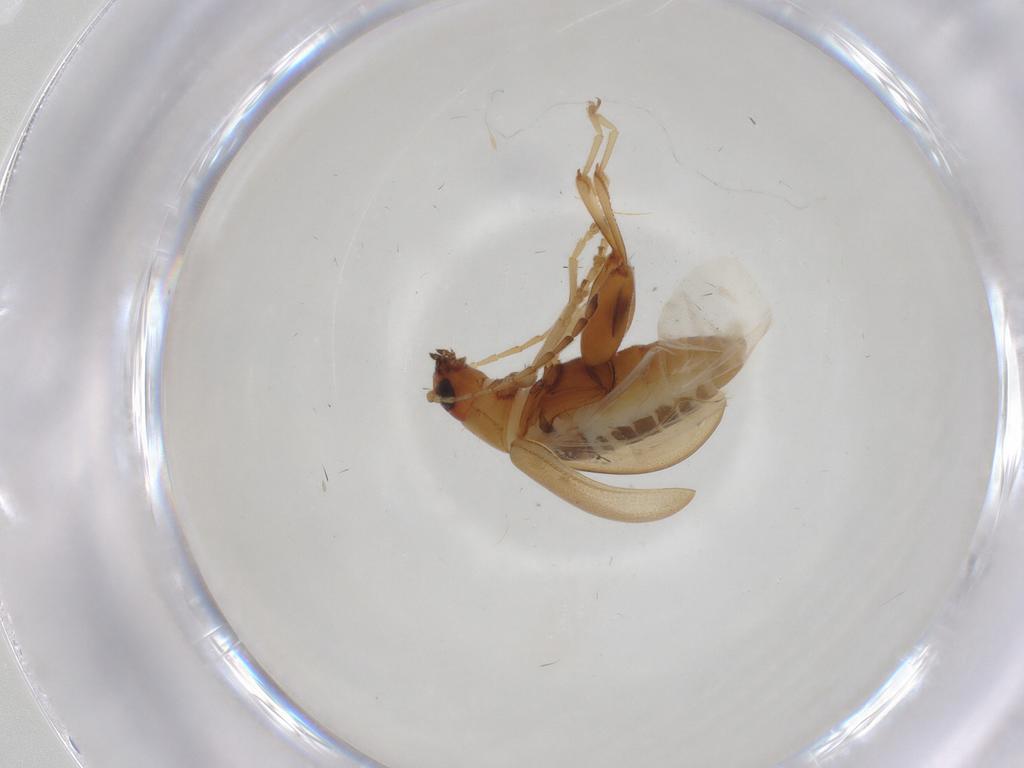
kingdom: Animalia
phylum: Arthropoda
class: Insecta
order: Coleoptera
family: Chrysomelidae
